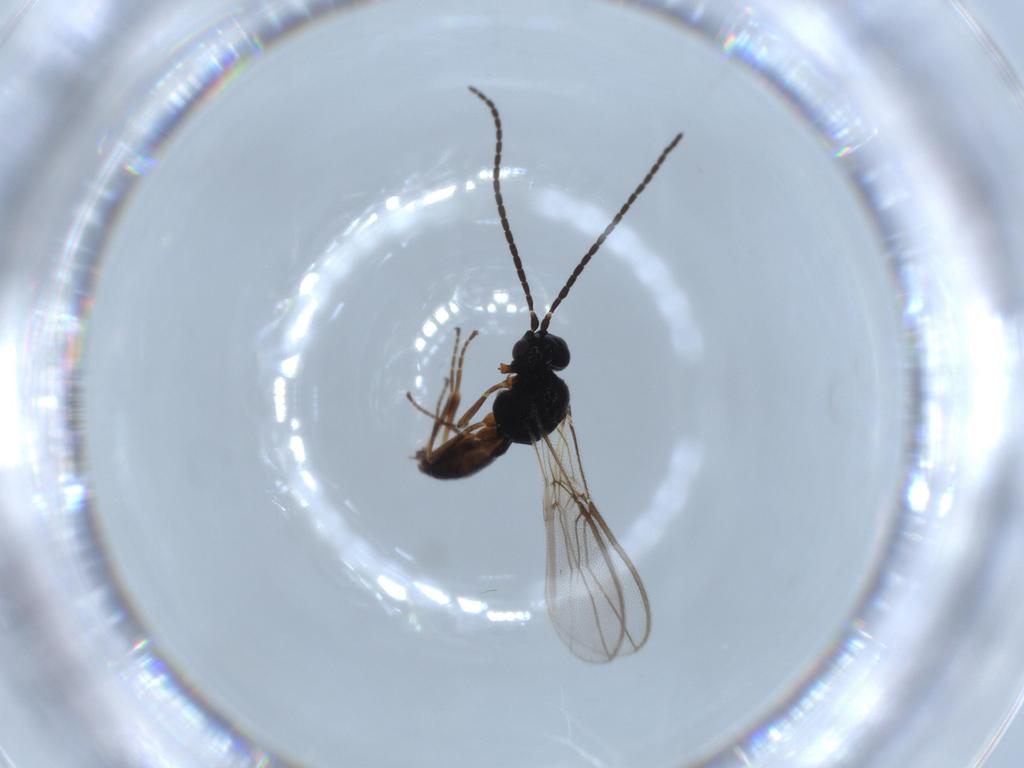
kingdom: Animalia
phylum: Arthropoda
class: Insecta
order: Hymenoptera
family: Braconidae
